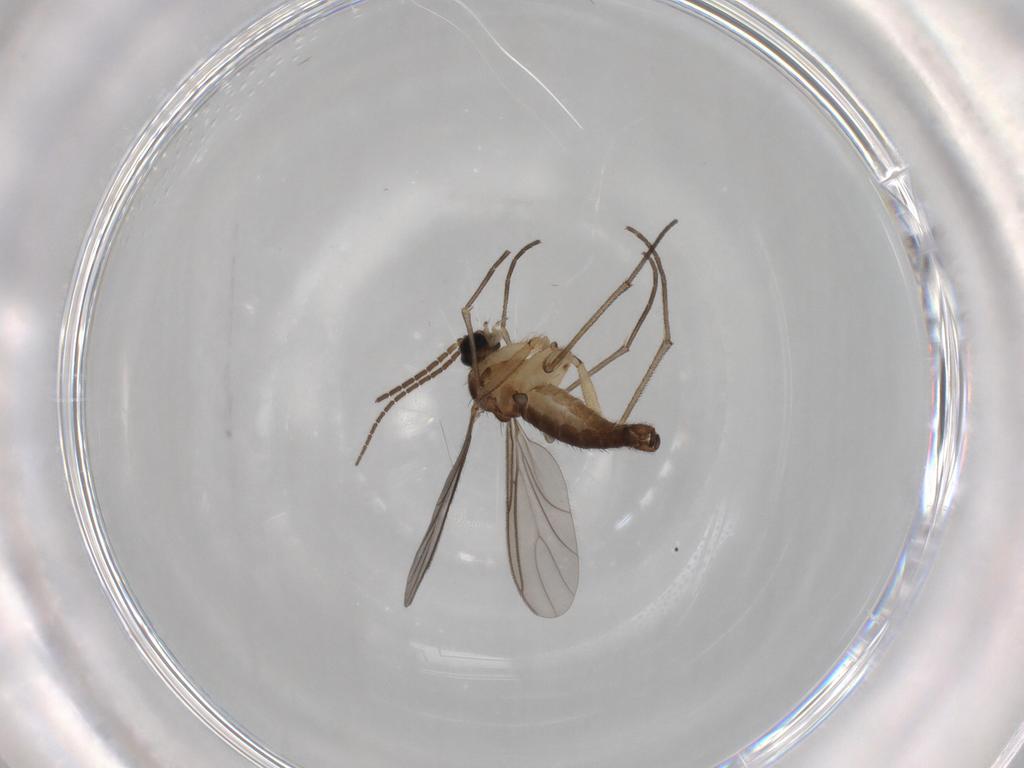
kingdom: Animalia
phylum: Arthropoda
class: Insecta
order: Diptera
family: Sciaridae
